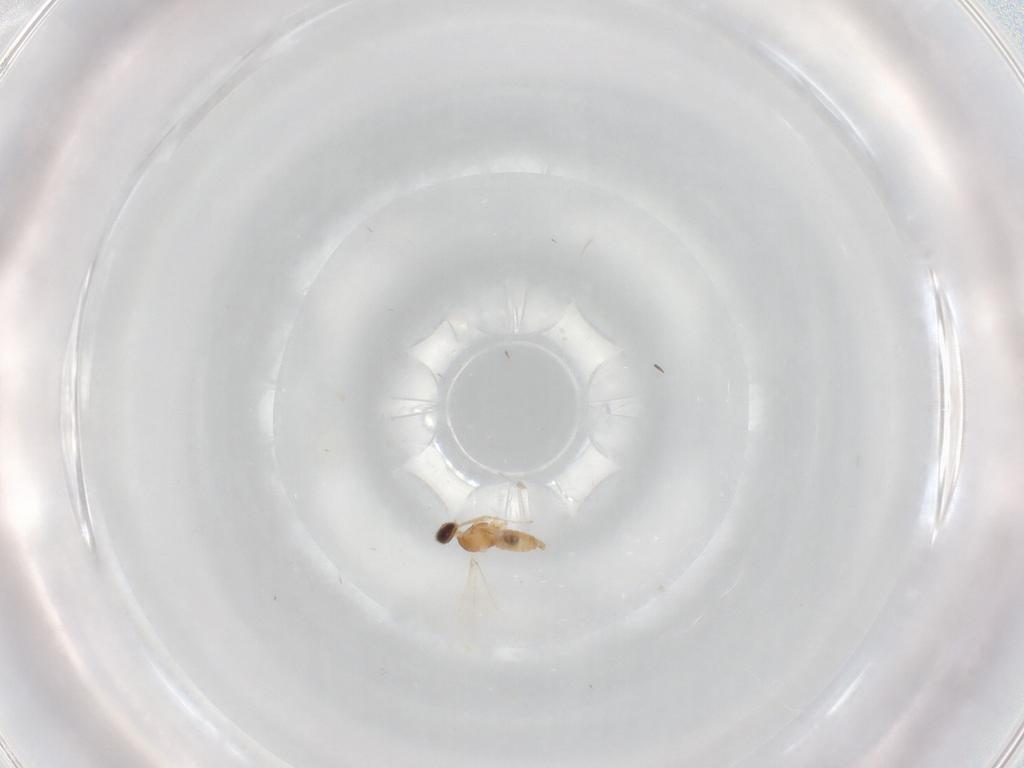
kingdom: Animalia
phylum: Arthropoda
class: Insecta
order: Diptera
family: Cecidomyiidae
